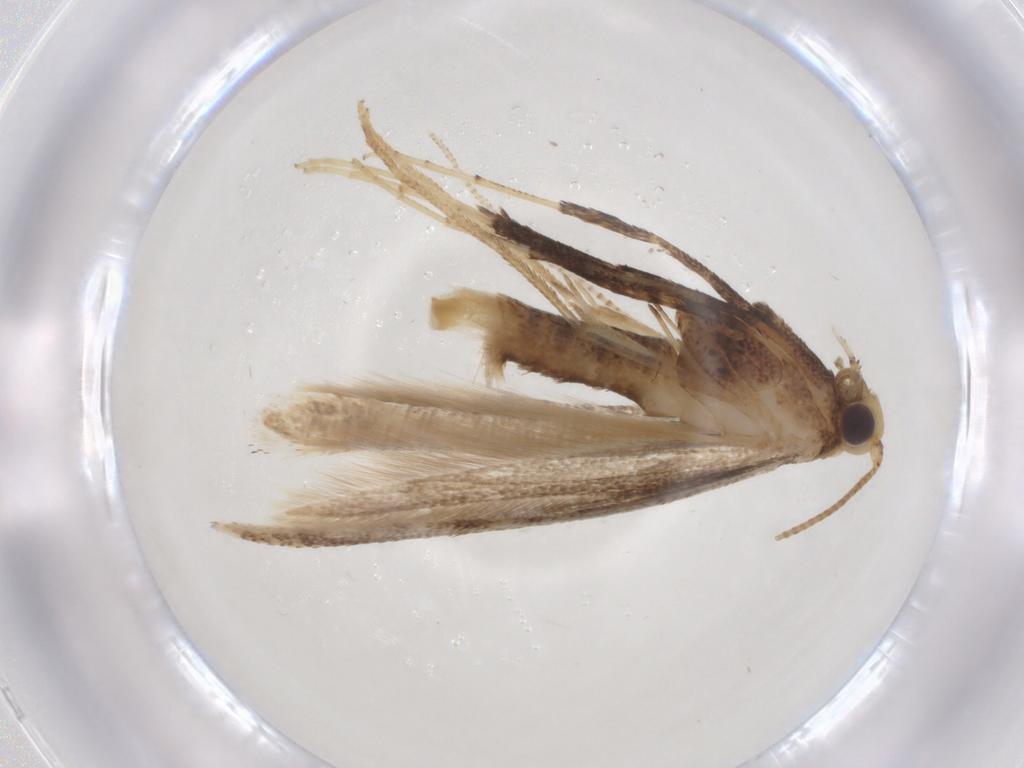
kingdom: Animalia
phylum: Arthropoda
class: Insecta
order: Lepidoptera
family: Gracillariidae
